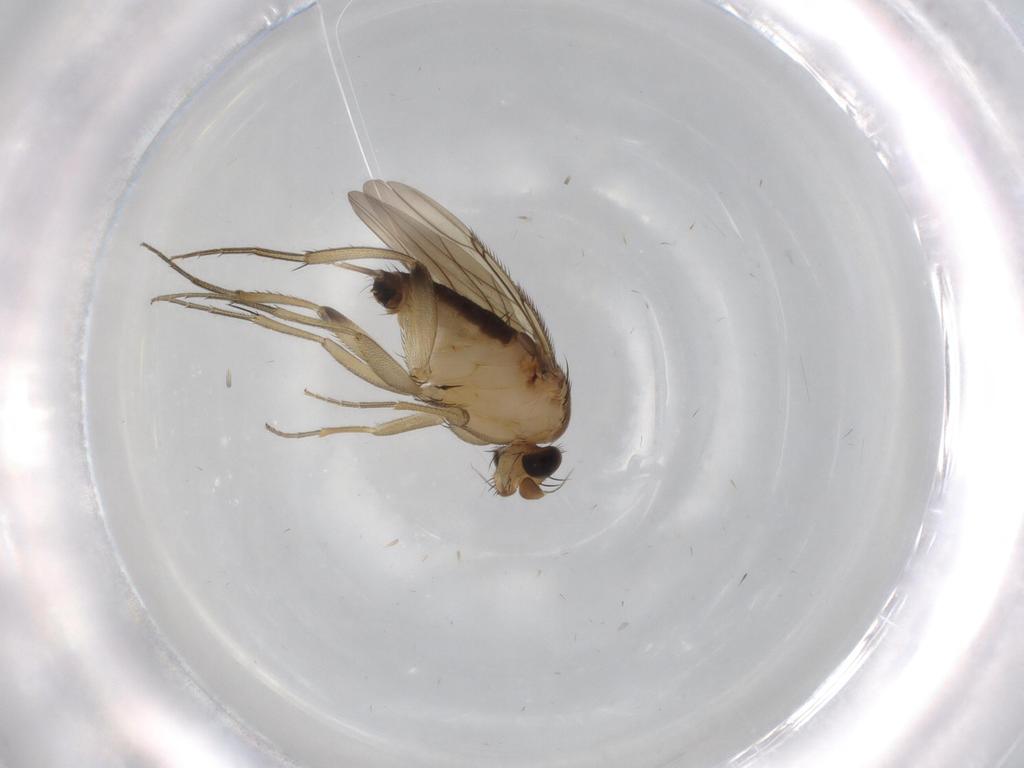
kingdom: Animalia
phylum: Arthropoda
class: Insecta
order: Diptera
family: Phoridae
